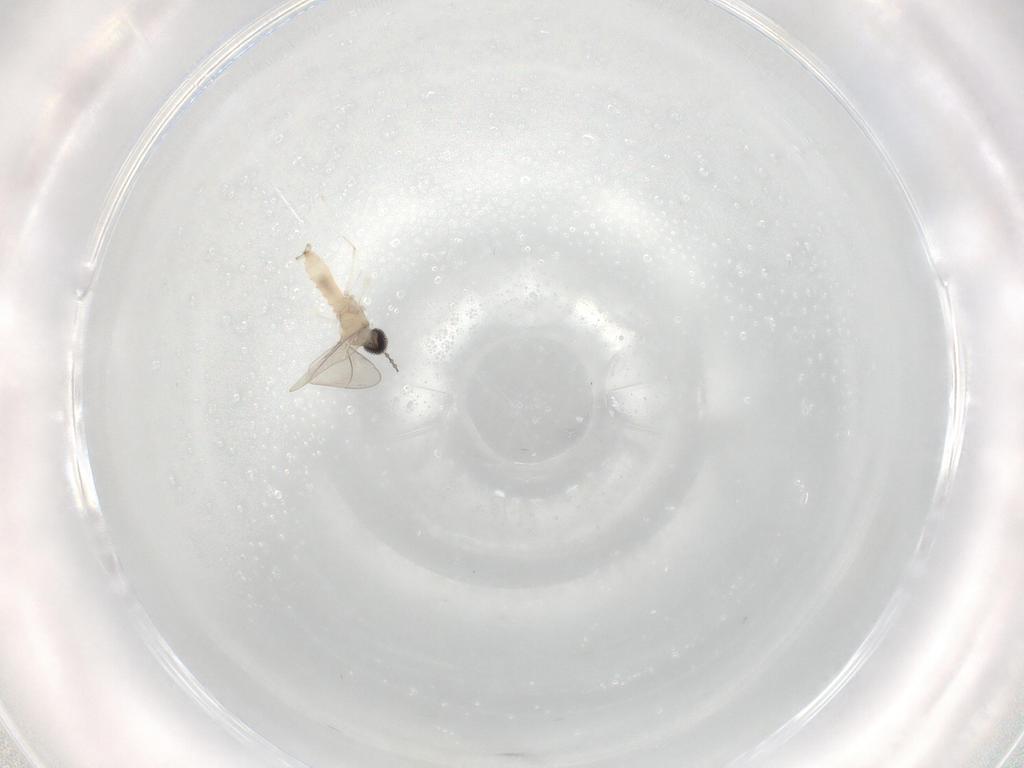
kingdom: Animalia
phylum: Arthropoda
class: Insecta
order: Diptera
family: Cecidomyiidae
